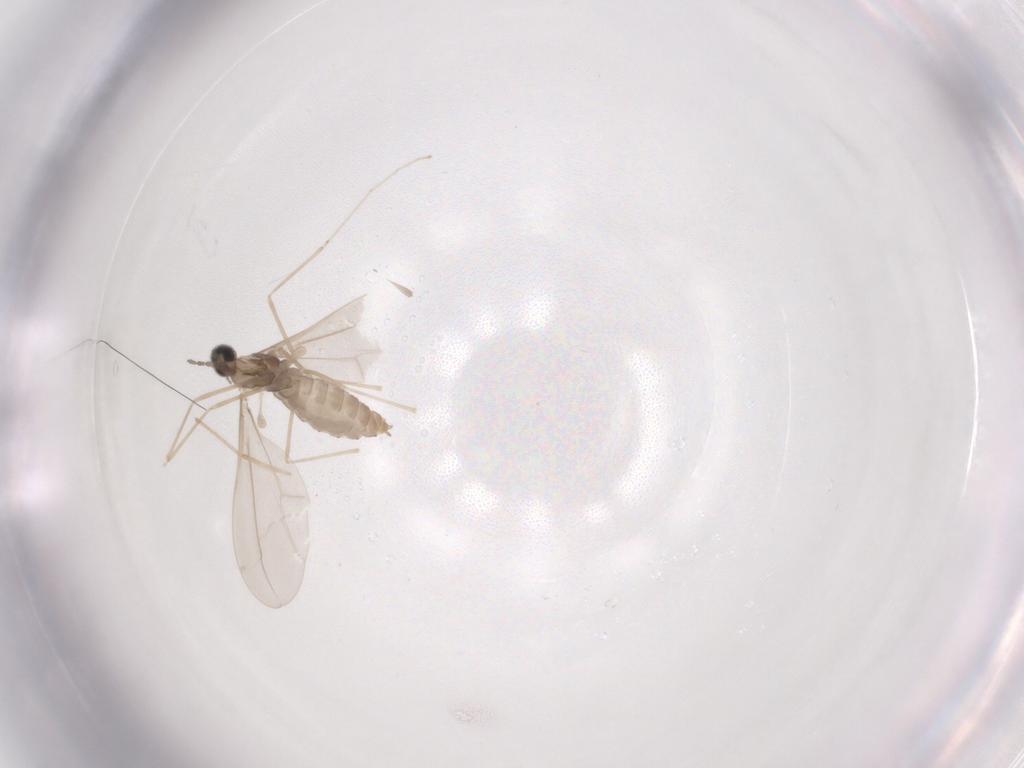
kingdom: Animalia
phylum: Arthropoda
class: Insecta
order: Diptera
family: Cecidomyiidae
